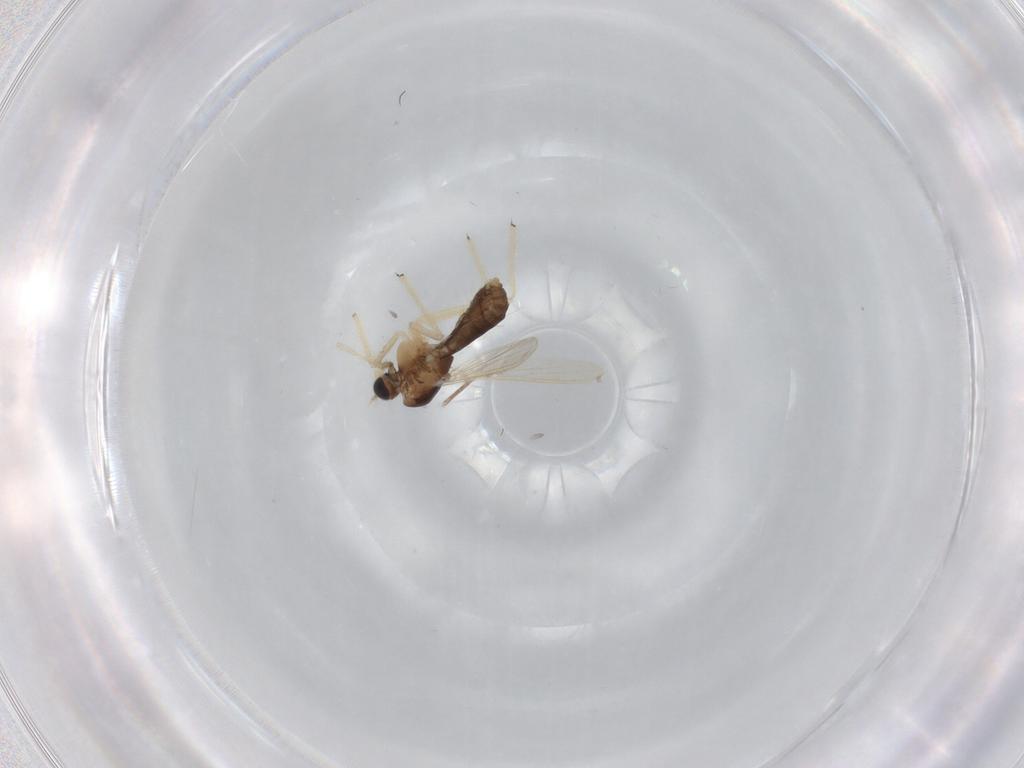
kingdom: Animalia
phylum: Arthropoda
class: Insecta
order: Diptera
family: Chironomidae
